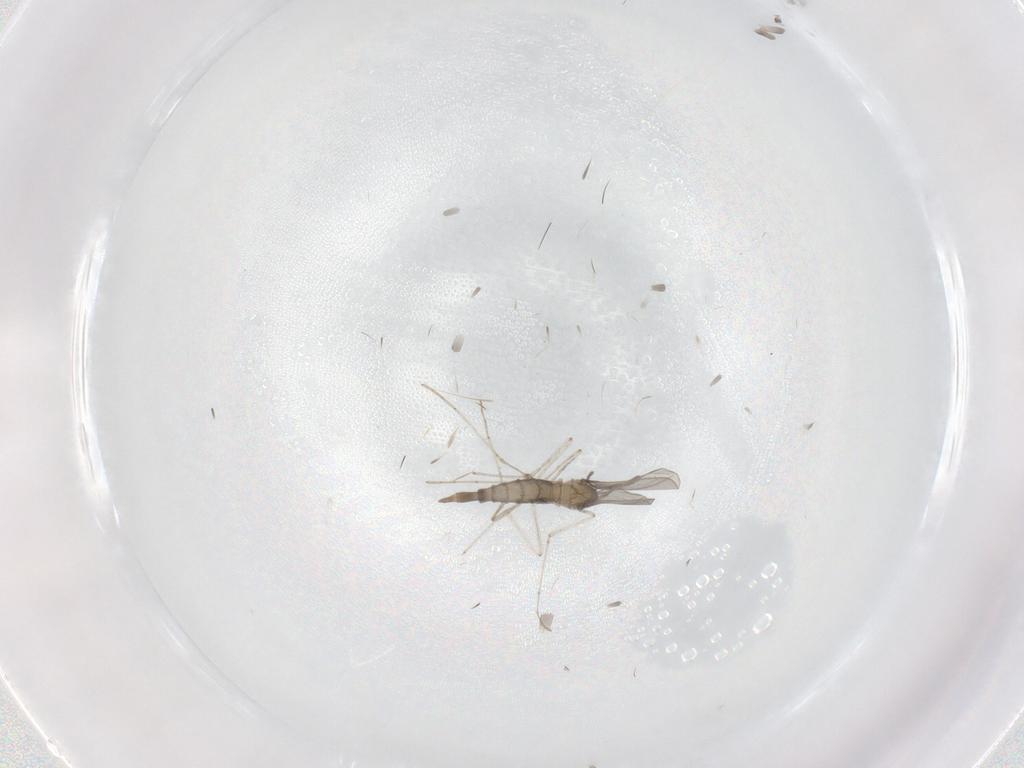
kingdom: Animalia
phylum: Arthropoda
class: Insecta
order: Diptera
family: Cecidomyiidae
